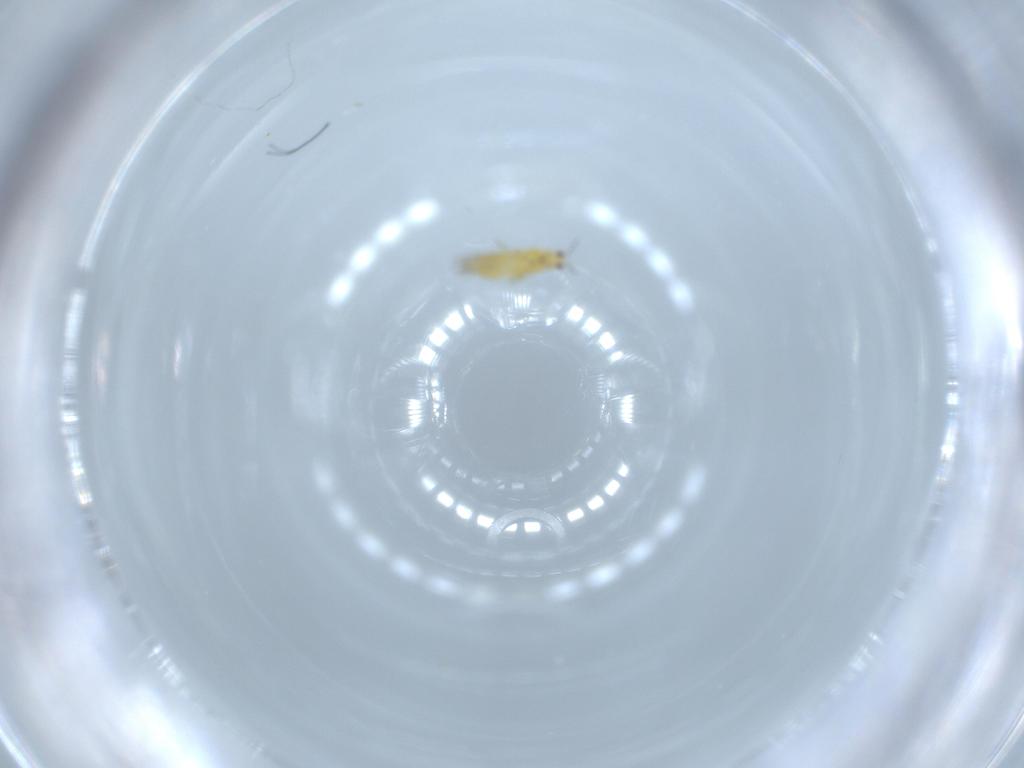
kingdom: Animalia
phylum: Arthropoda
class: Insecta
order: Thysanoptera
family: Thripidae
